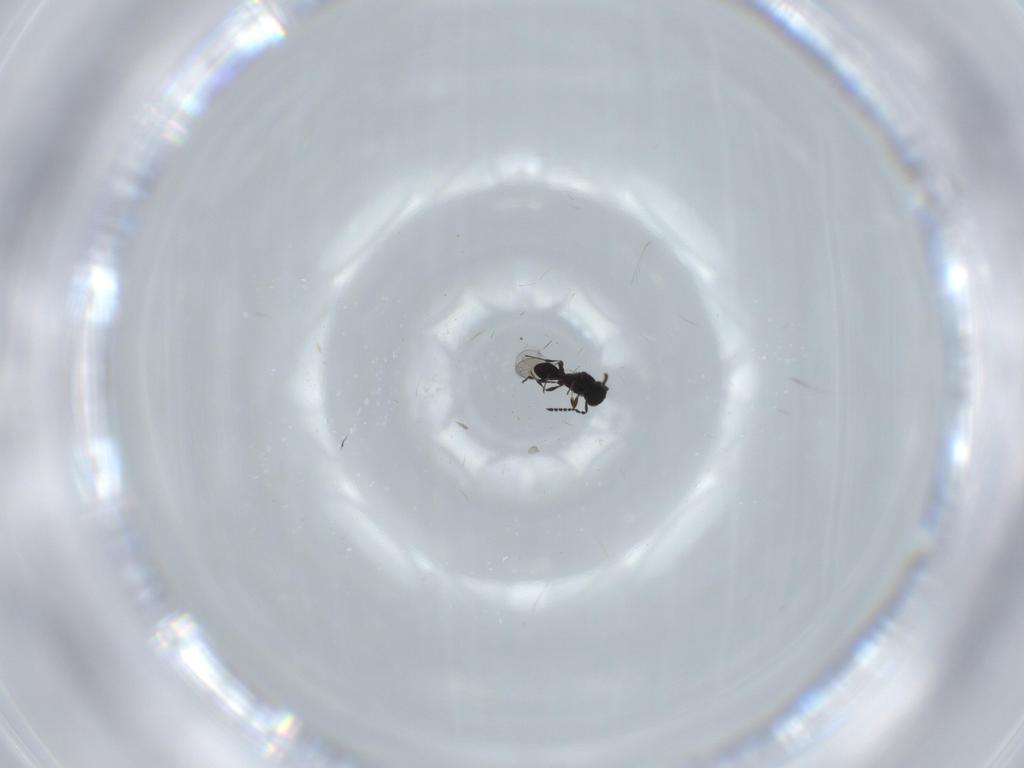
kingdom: Animalia
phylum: Arthropoda
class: Insecta
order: Hymenoptera
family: Platygastridae
